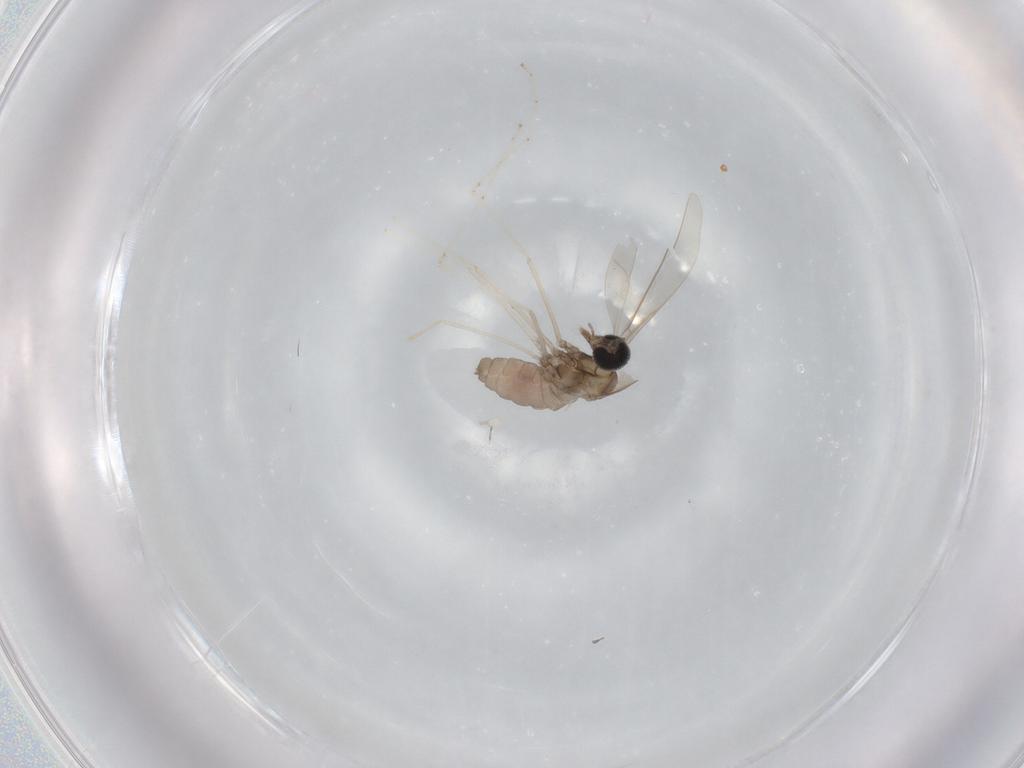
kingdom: Animalia
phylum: Arthropoda
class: Insecta
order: Diptera
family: Cecidomyiidae
